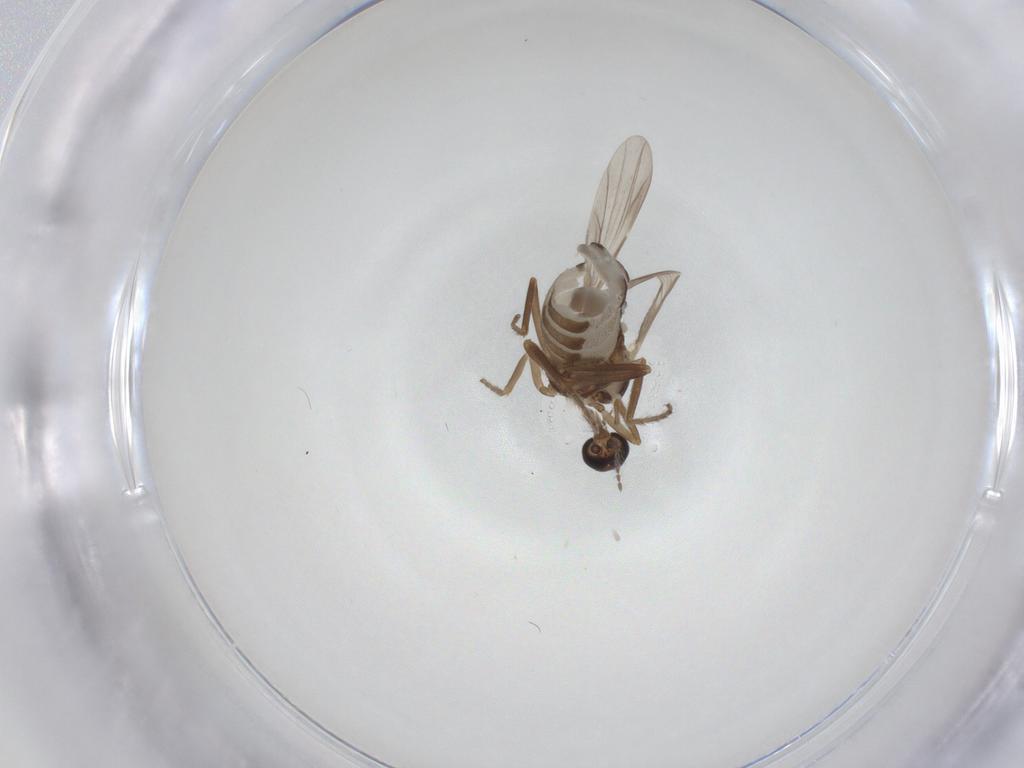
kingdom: Animalia
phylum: Arthropoda
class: Insecta
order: Diptera
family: Ceratopogonidae
